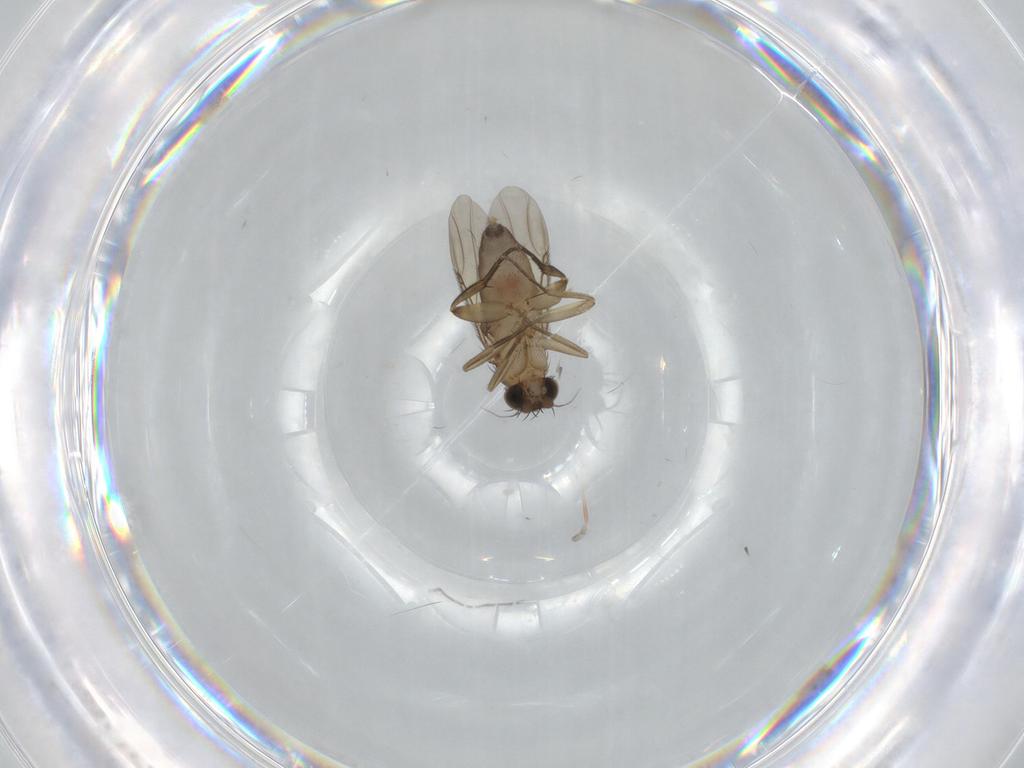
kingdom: Animalia
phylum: Arthropoda
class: Insecta
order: Diptera
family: Phoridae
